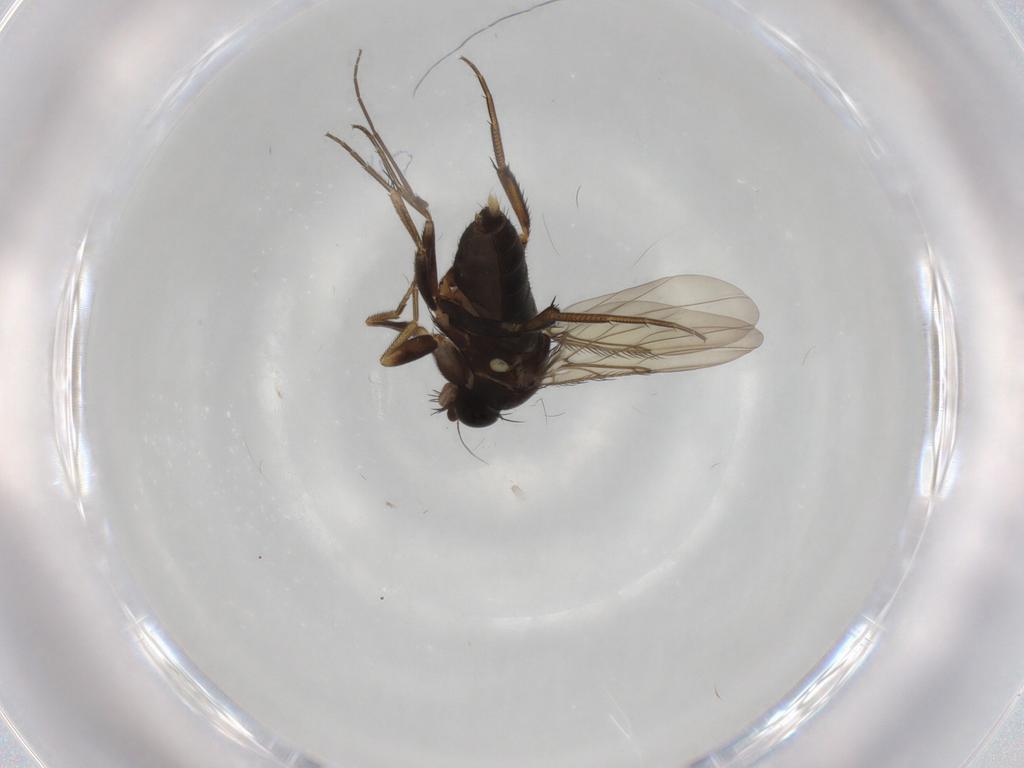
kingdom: Animalia
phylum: Arthropoda
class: Insecta
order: Diptera
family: Phoridae
